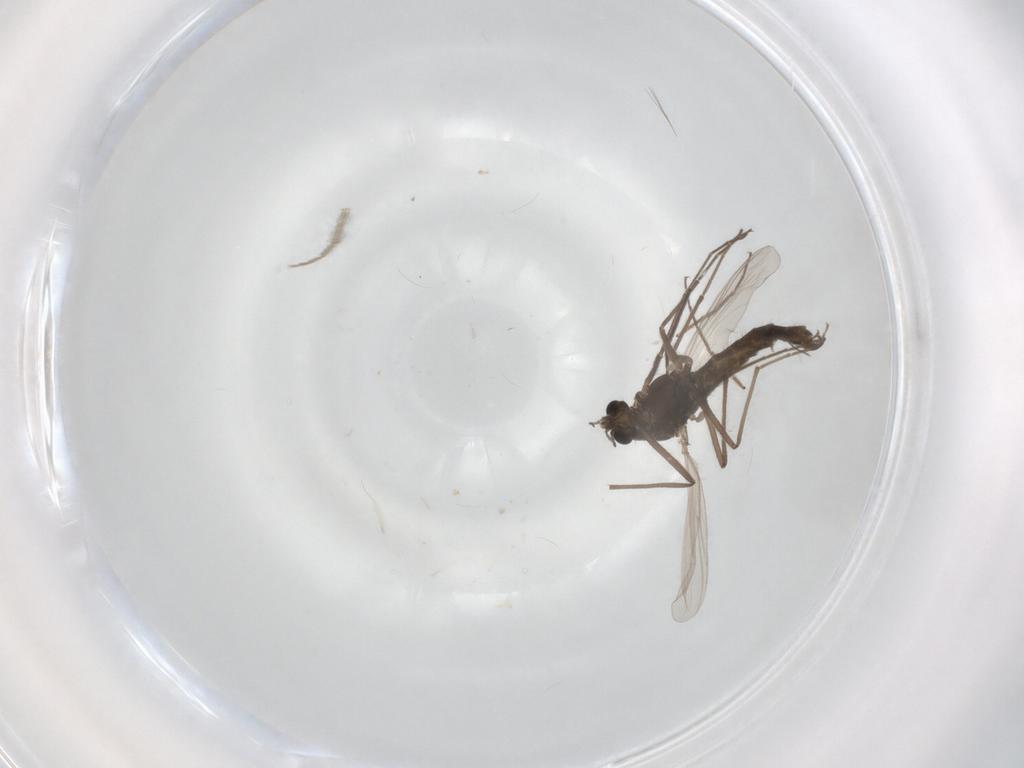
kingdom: Animalia
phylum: Arthropoda
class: Insecta
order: Diptera
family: Chironomidae
